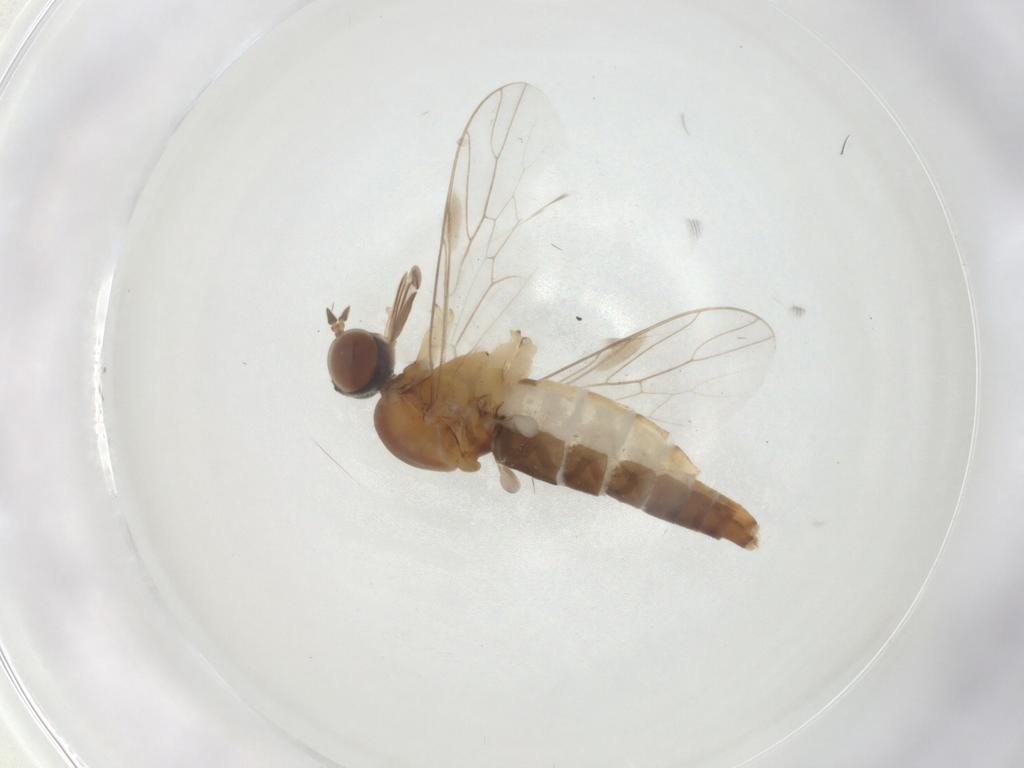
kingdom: Animalia
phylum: Arthropoda
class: Insecta
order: Diptera
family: Scenopinidae
